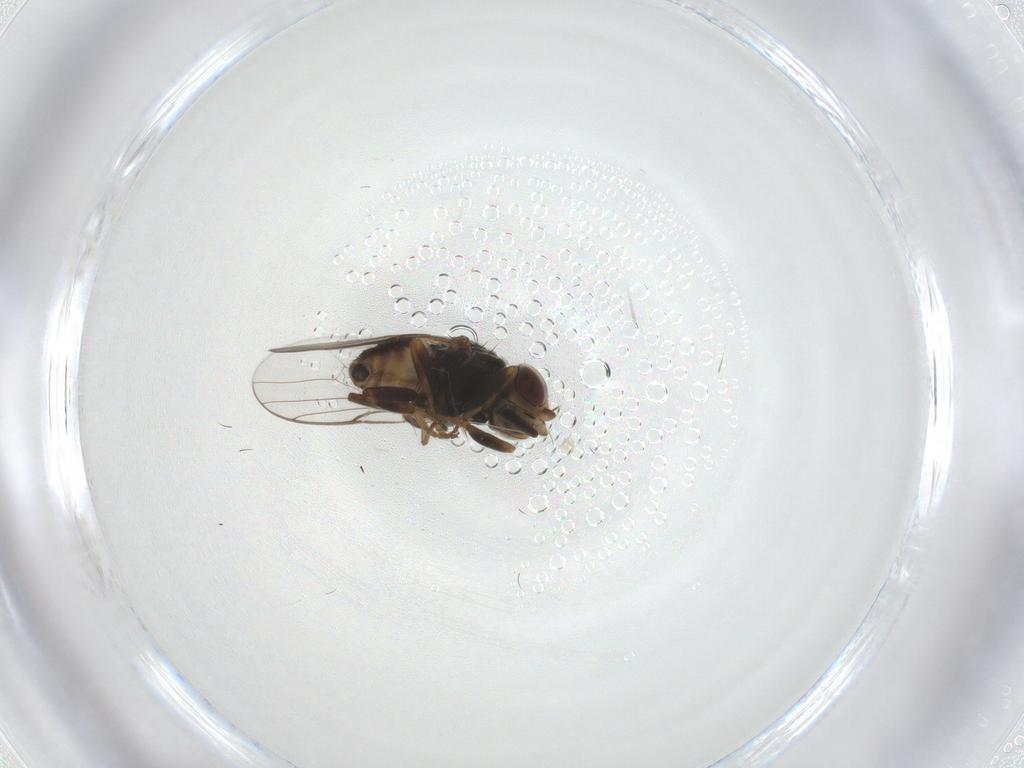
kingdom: Animalia
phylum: Arthropoda
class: Insecta
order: Diptera
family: Chloropidae
